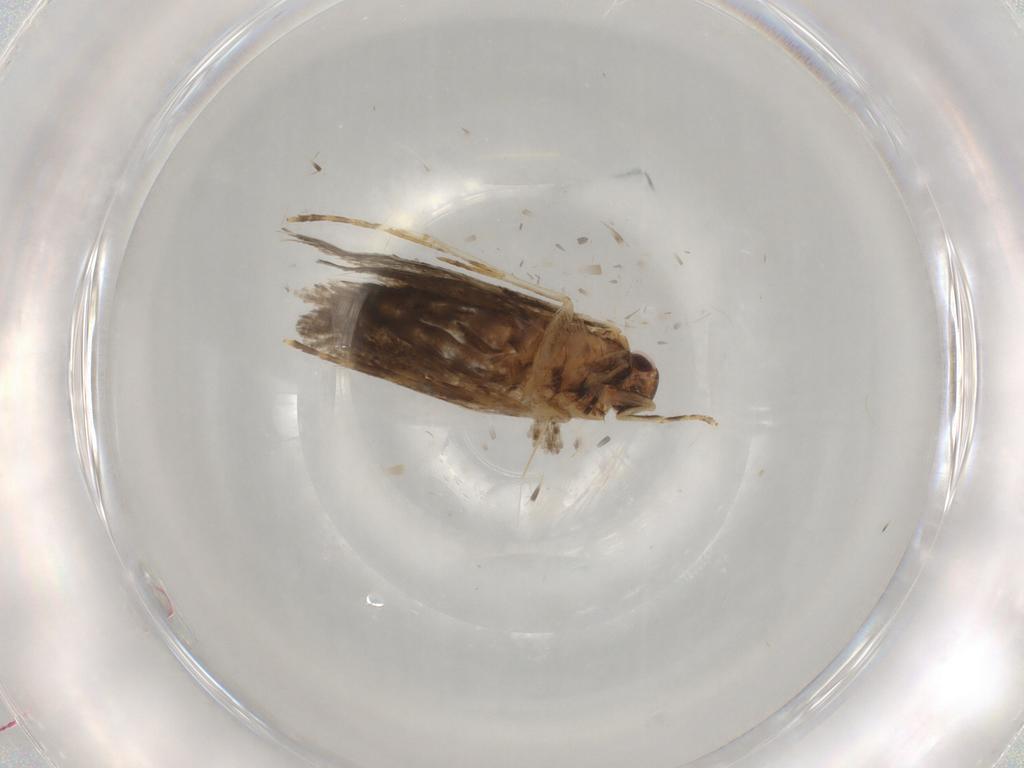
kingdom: Animalia
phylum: Arthropoda
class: Insecta
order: Lepidoptera
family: Oecophoridae
